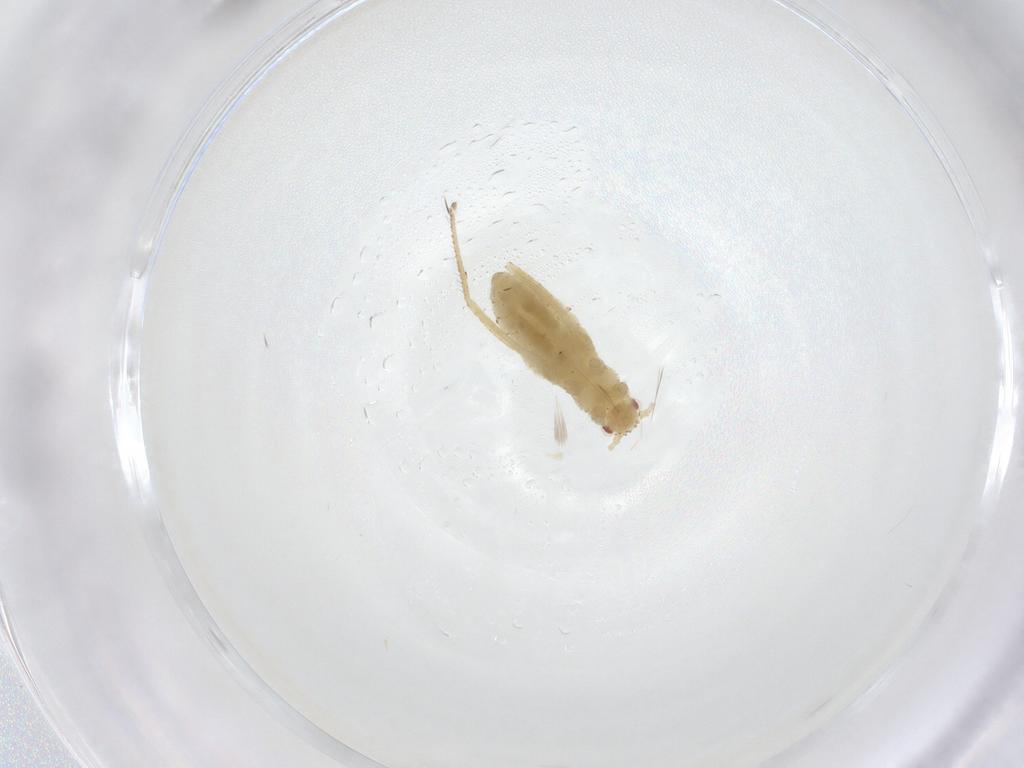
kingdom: Animalia
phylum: Arthropoda
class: Insecta
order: Hemiptera
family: Aphididae
